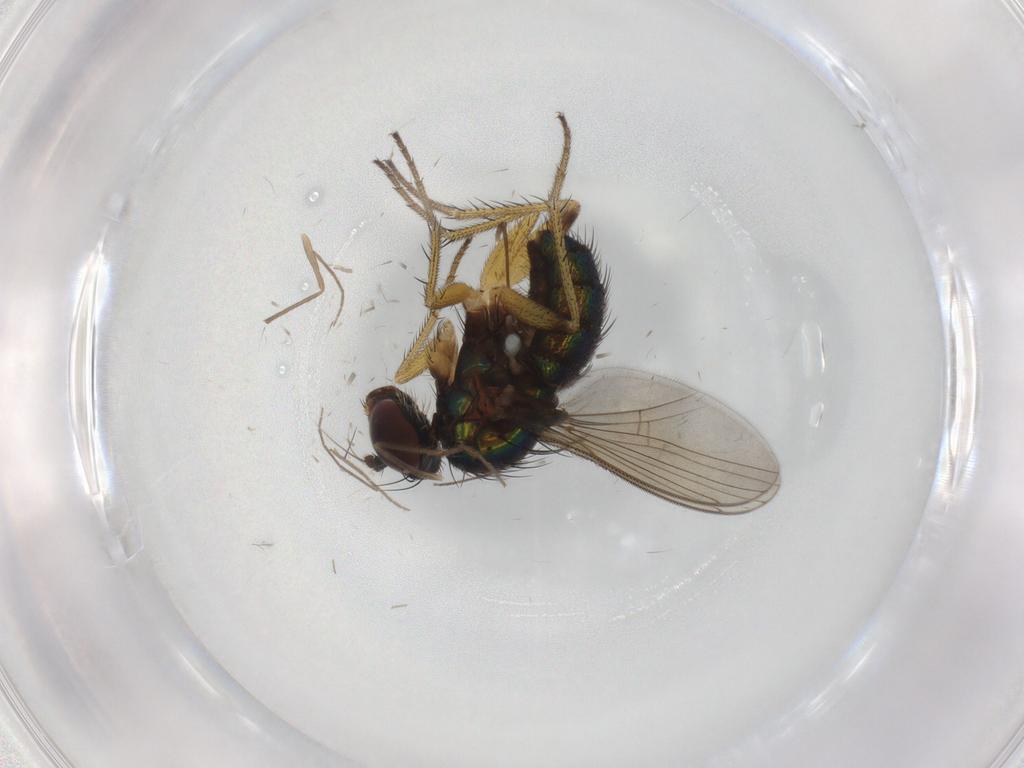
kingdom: Animalia
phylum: Arthropoda
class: Insecta
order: Diptera
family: Dolichopodidae
